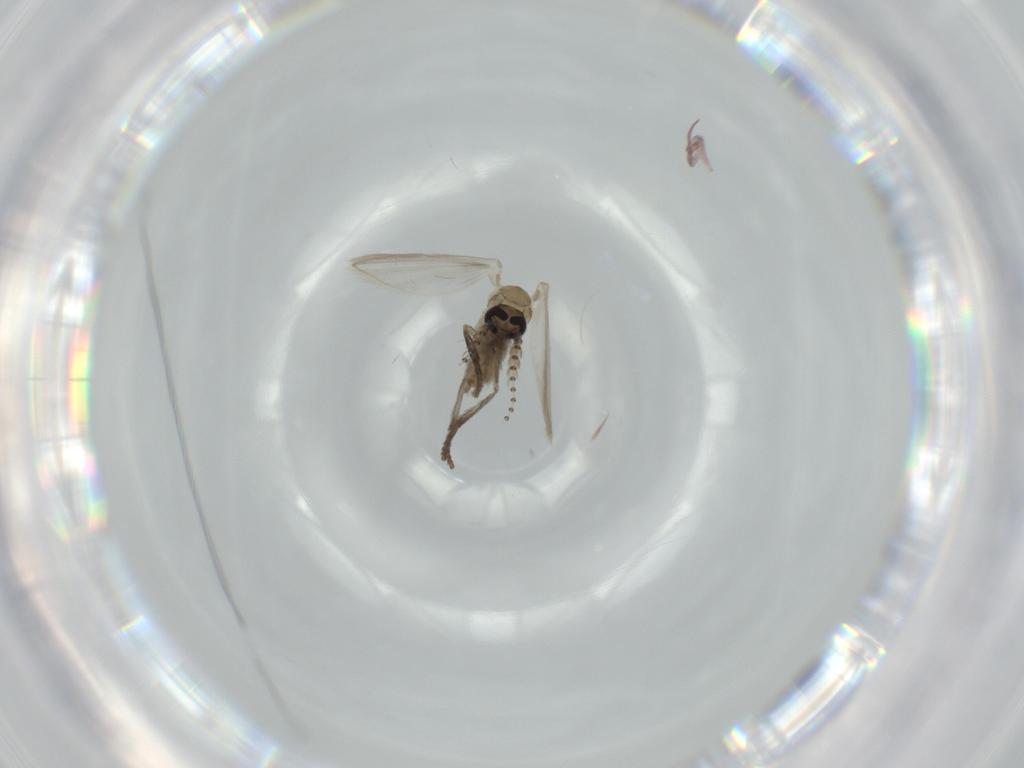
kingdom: Animalia
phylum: Arthropoda
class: Insecta
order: Diptera
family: Psychodidae
